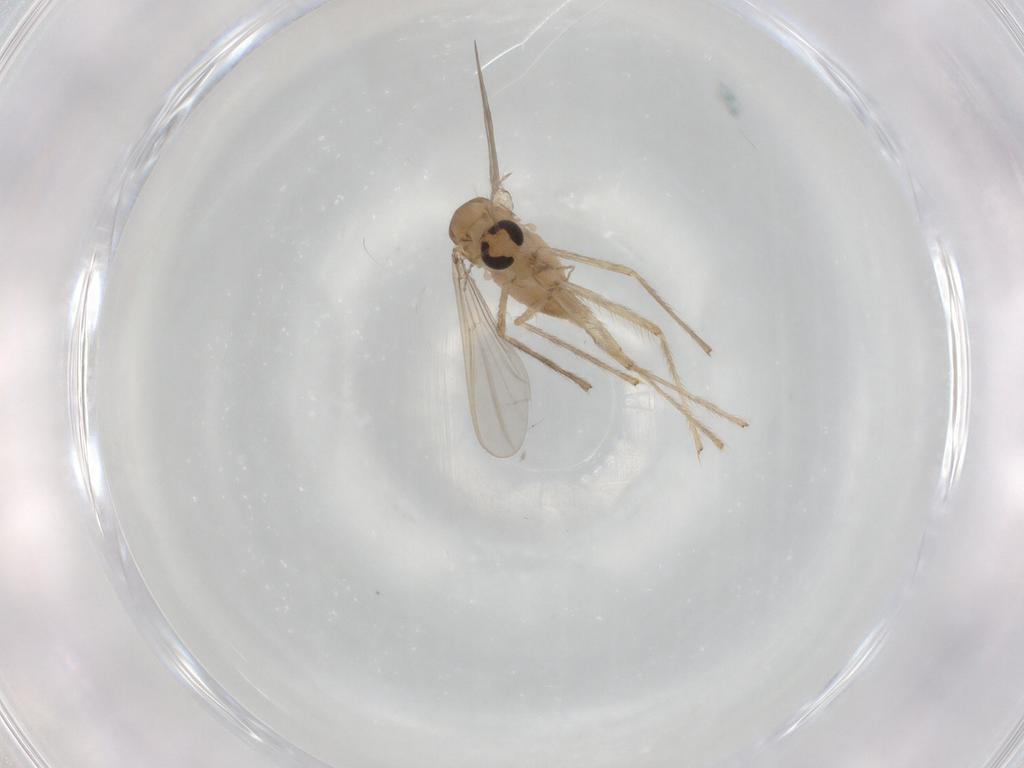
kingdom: Animalia
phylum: Arthropoda
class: Insecta
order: Diptera
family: Chironomidae
